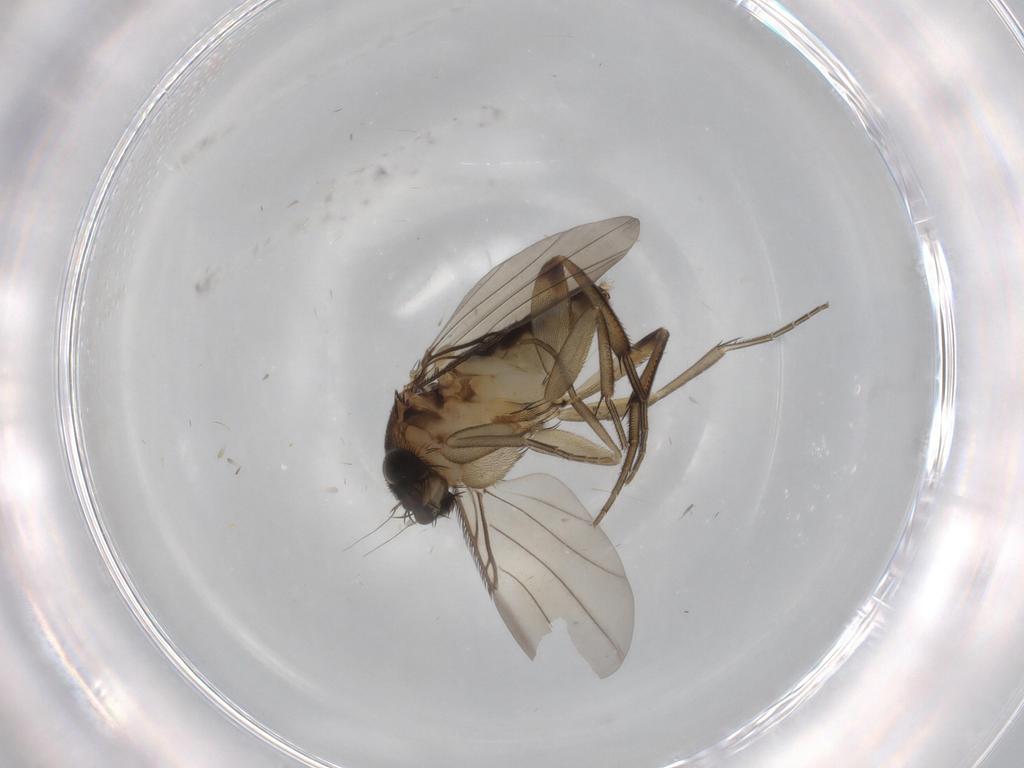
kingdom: Animalia
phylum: Arthropoda
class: Insecta
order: Diptera
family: Phoridae
